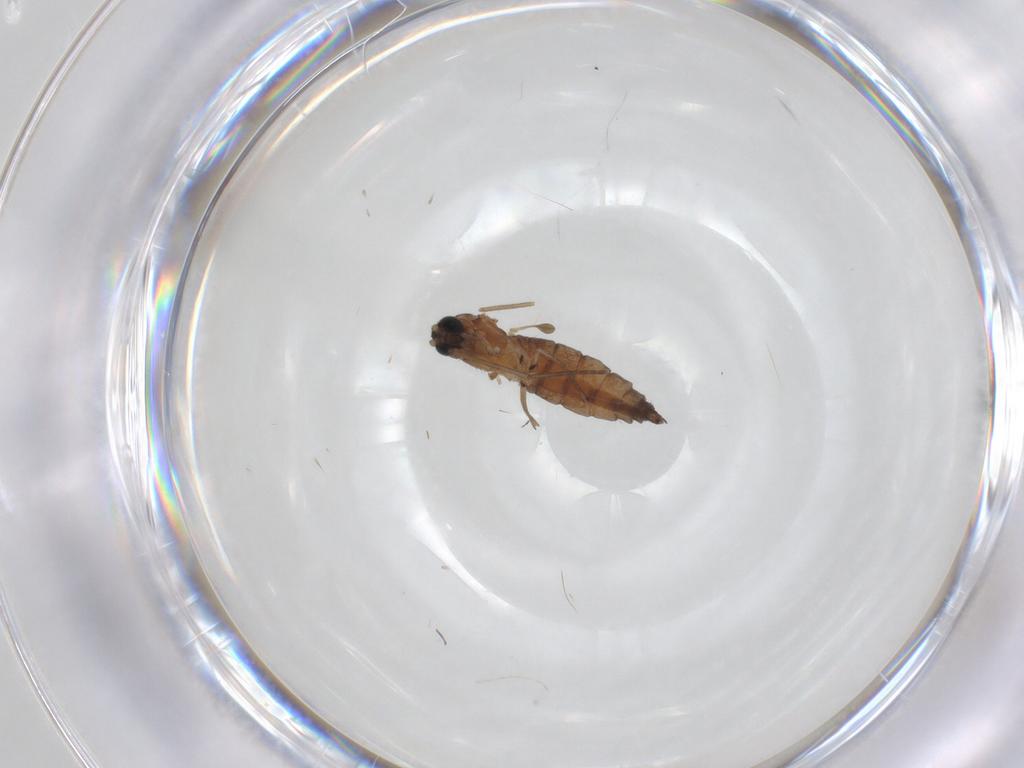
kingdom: Animalia
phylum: Arthropoda
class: Insecta
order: Diptera
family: Sciaridae
